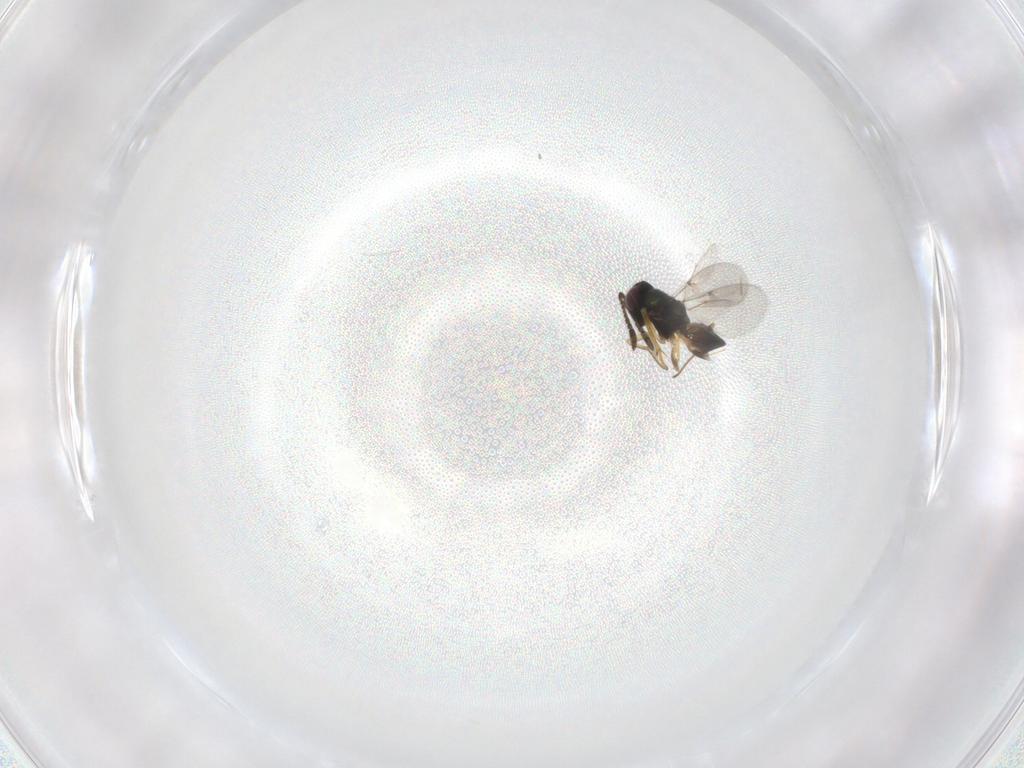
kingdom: Animalia
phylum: Arthropoda
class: Insecta
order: Hymenoptera
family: Encyrtidae
